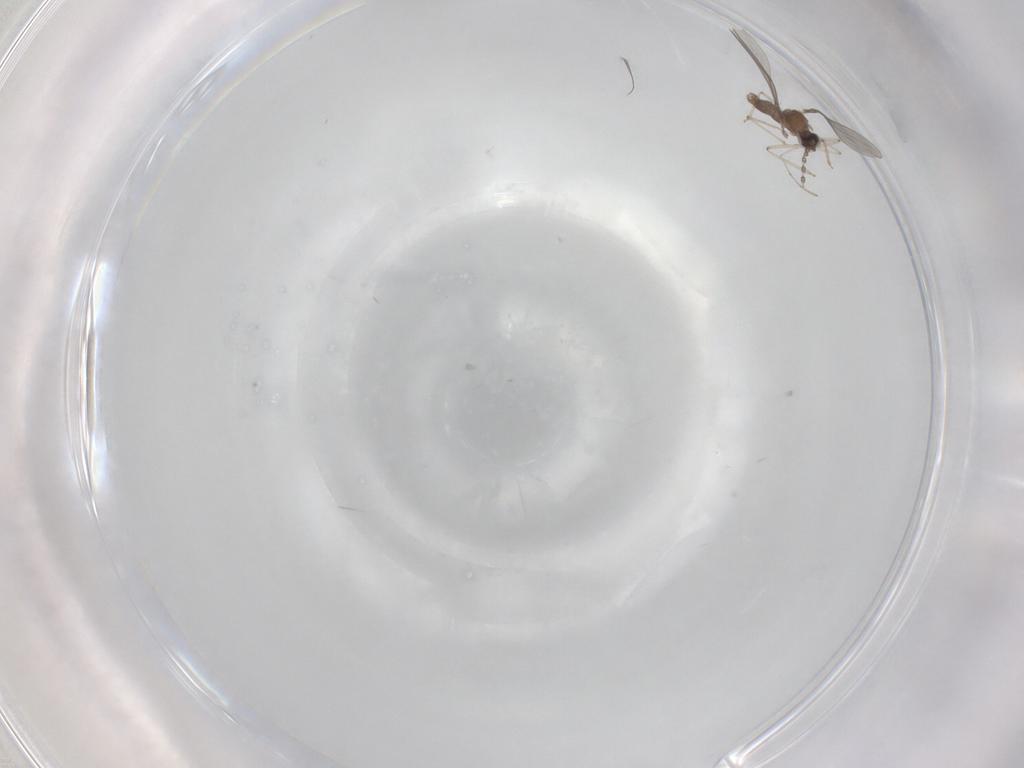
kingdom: Animalia
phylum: Arthropoda
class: Insecta
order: Diptera
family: Cecidomyiidae
